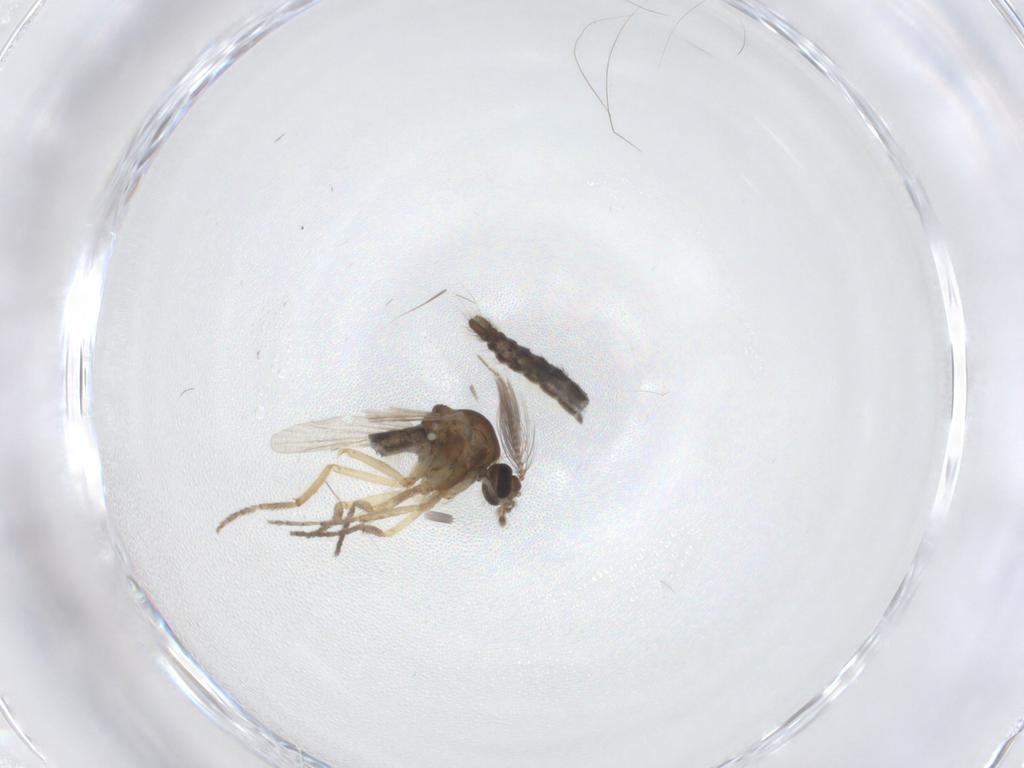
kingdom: Animalia
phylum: Arthropoda
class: Insecta
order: Diptera
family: Ceratopogonidae
